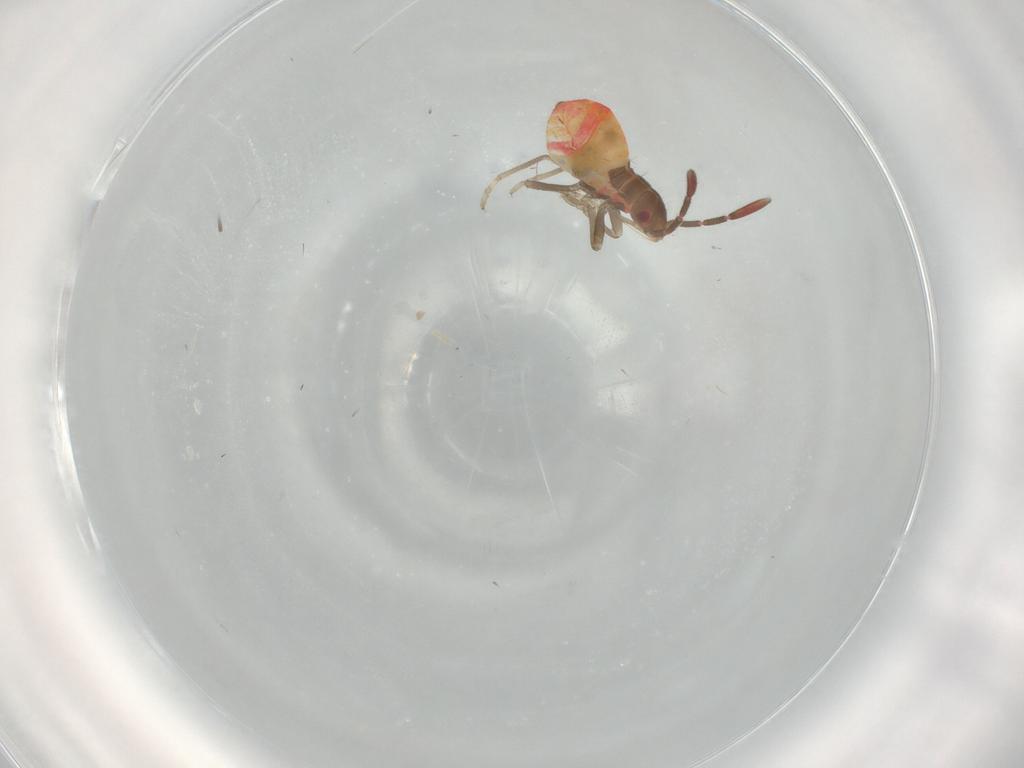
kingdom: Animalia
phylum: Arthropoda
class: Insecta
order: Hemiptera
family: Rhyparochromidae
